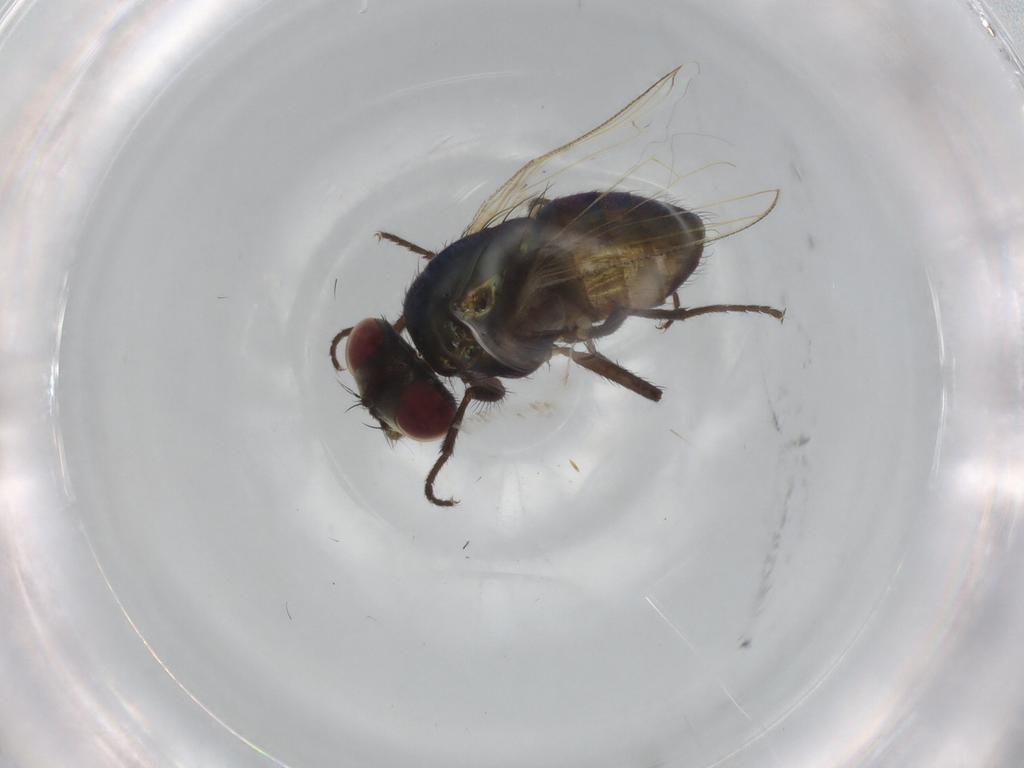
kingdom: Animalia
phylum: Arthropoda
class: Insecta
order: Diptera
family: Muscidae
